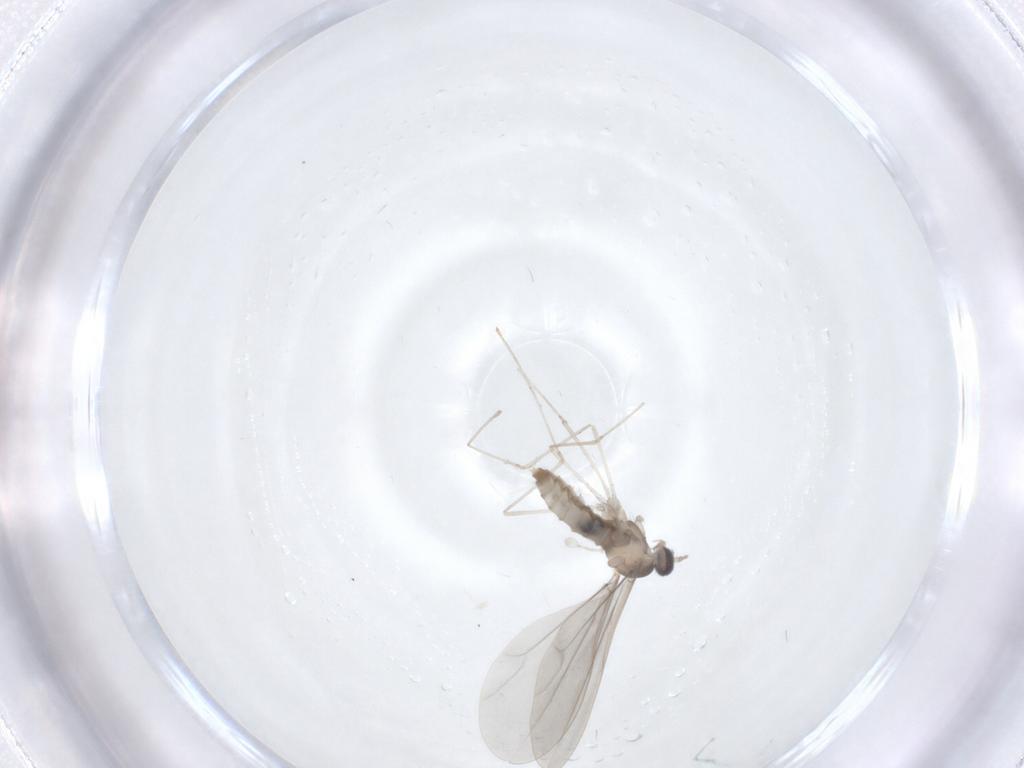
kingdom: Animalia
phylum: Arthropoda
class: Insecta
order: Diptera
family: Cecidomyiidae
